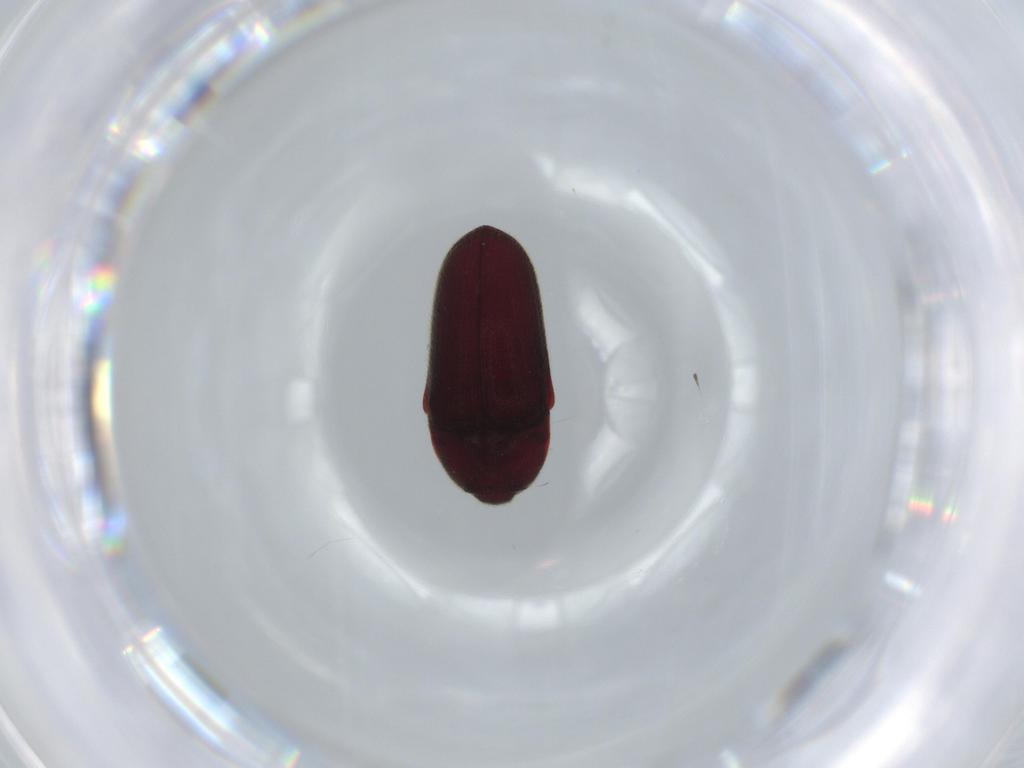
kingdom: Animalia
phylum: Arthropoda
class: Insecta
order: Coleoptera
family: Throscidae
